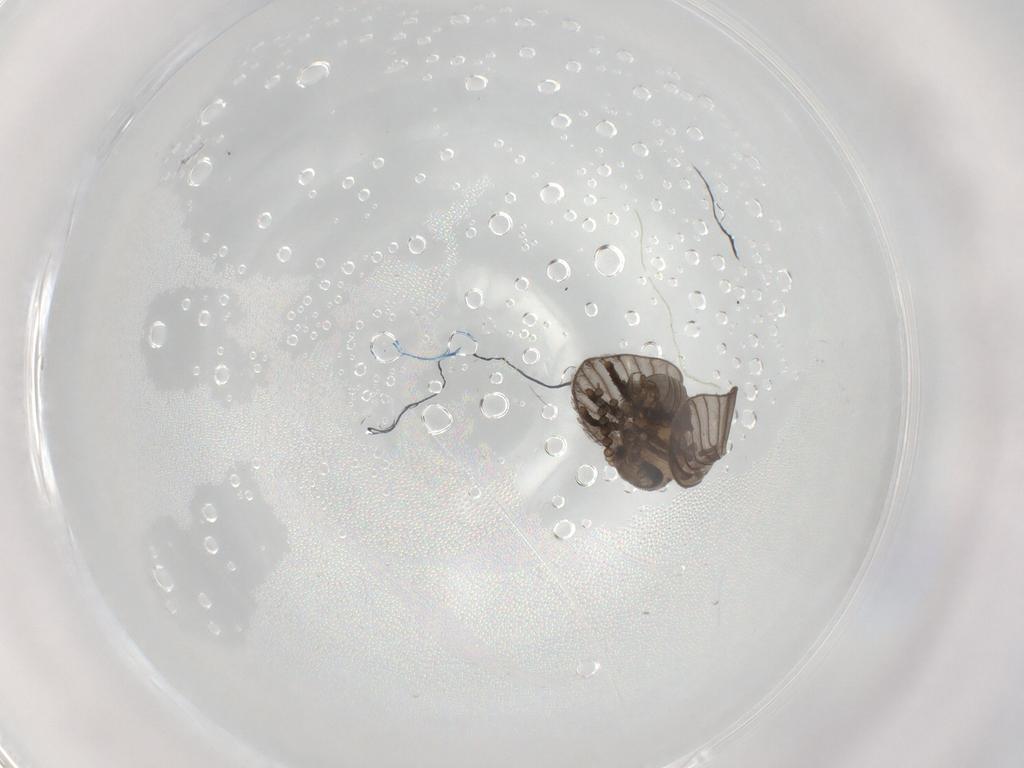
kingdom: Animalia
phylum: Arthropoda
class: Insecta
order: Diptera
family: Psychodidae
